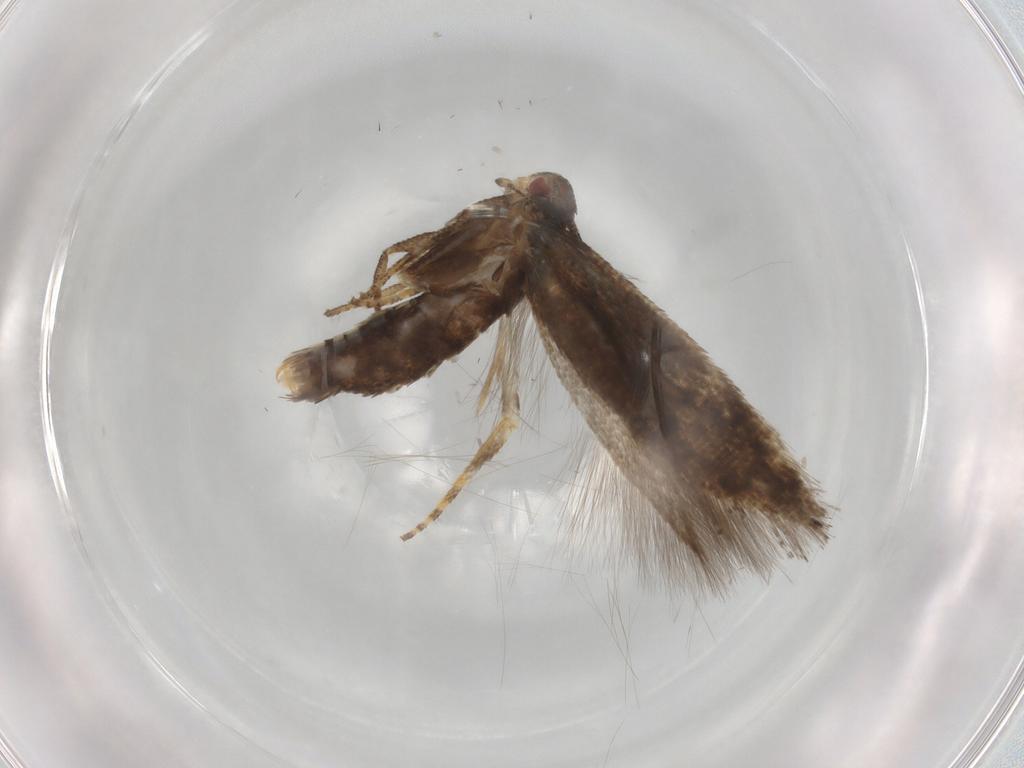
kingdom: Animalia
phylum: Arthropoda
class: Insecta
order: Lepidoptera
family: Momphidae
